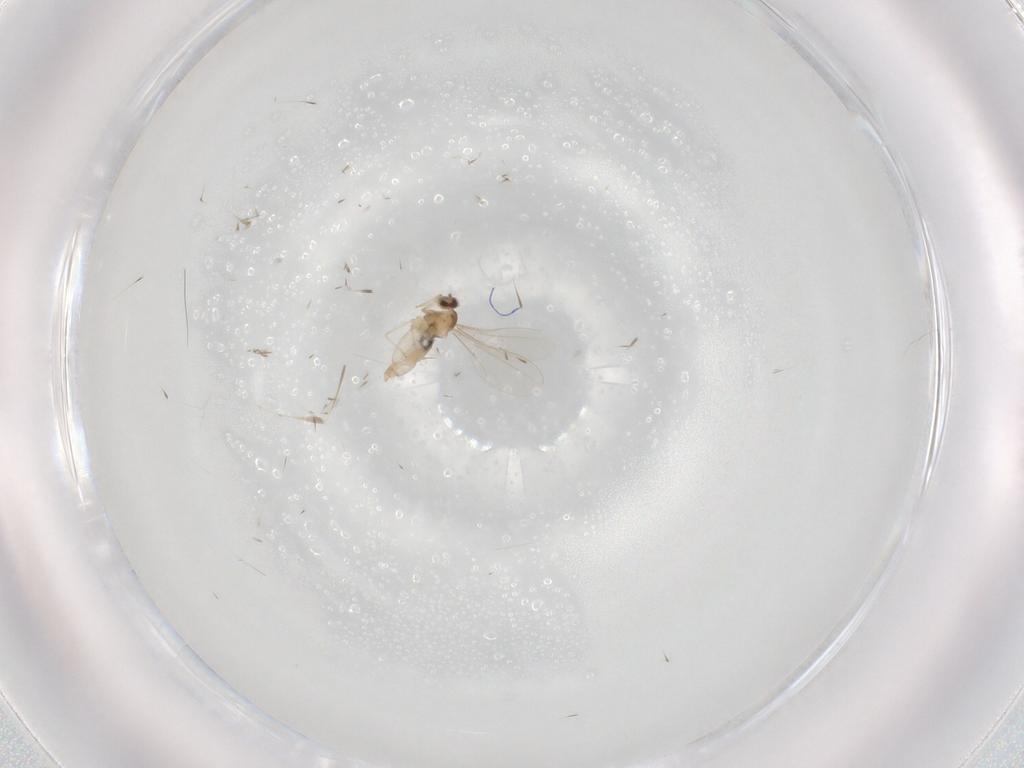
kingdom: Animalia
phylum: Arthropoda
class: Insecta
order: Diptera
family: Cecidomyiidae
